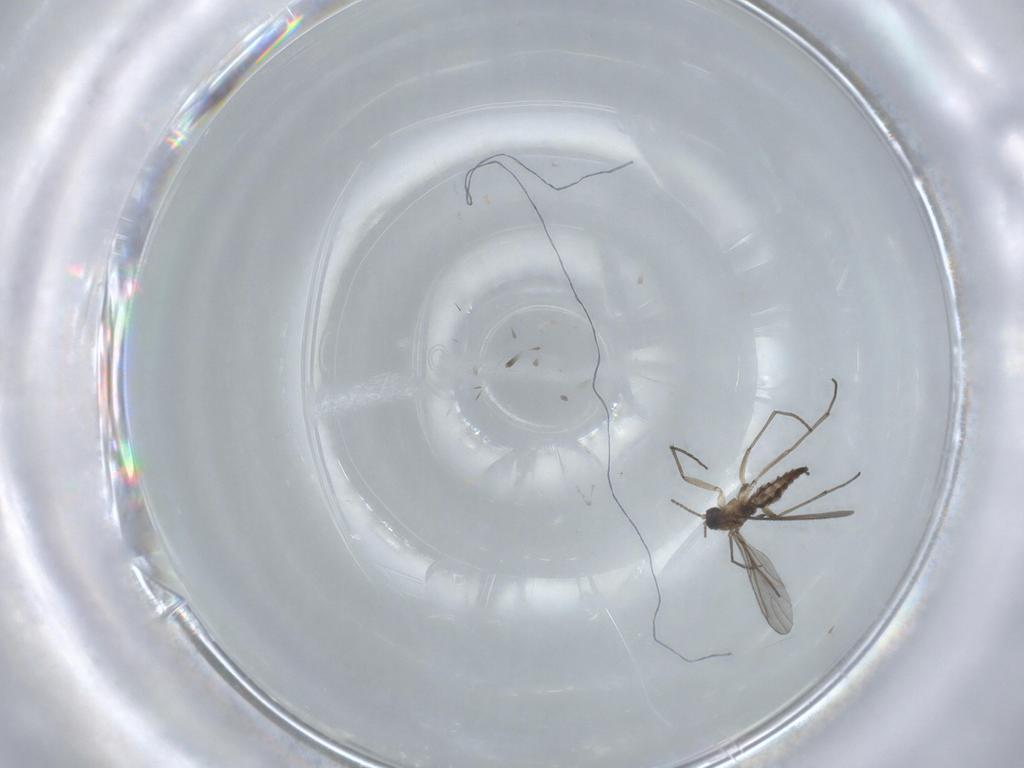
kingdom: Animalia
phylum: Arthropoda
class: Insecta
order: Diptera
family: Sciaridae
